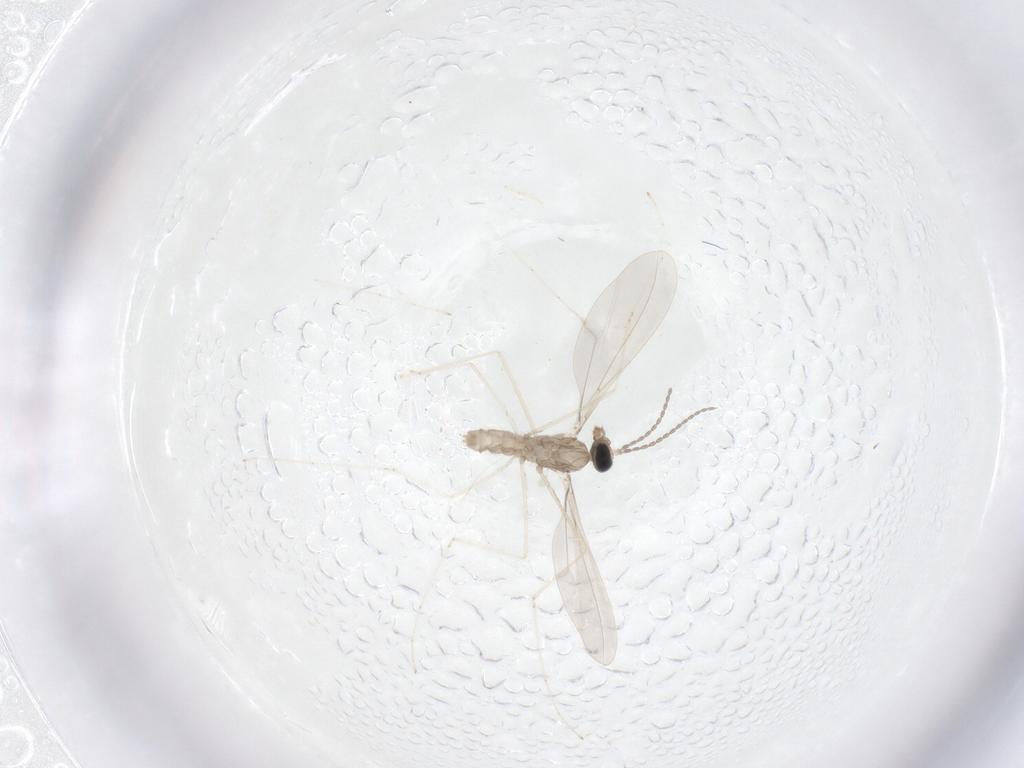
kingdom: Animalia
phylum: Arthropoda
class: Insecta
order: Diptera
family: Cecidomyiidae
